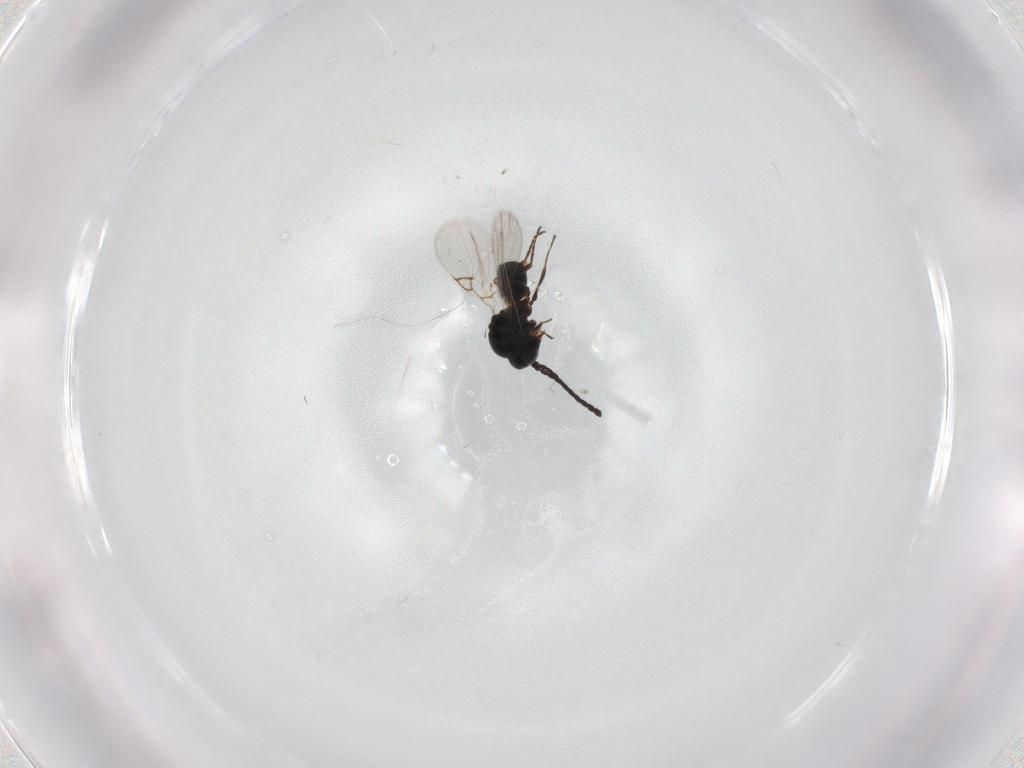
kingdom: Animalia
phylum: Arthropoda
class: Insecta
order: Hymenoptera
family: Figitidae
